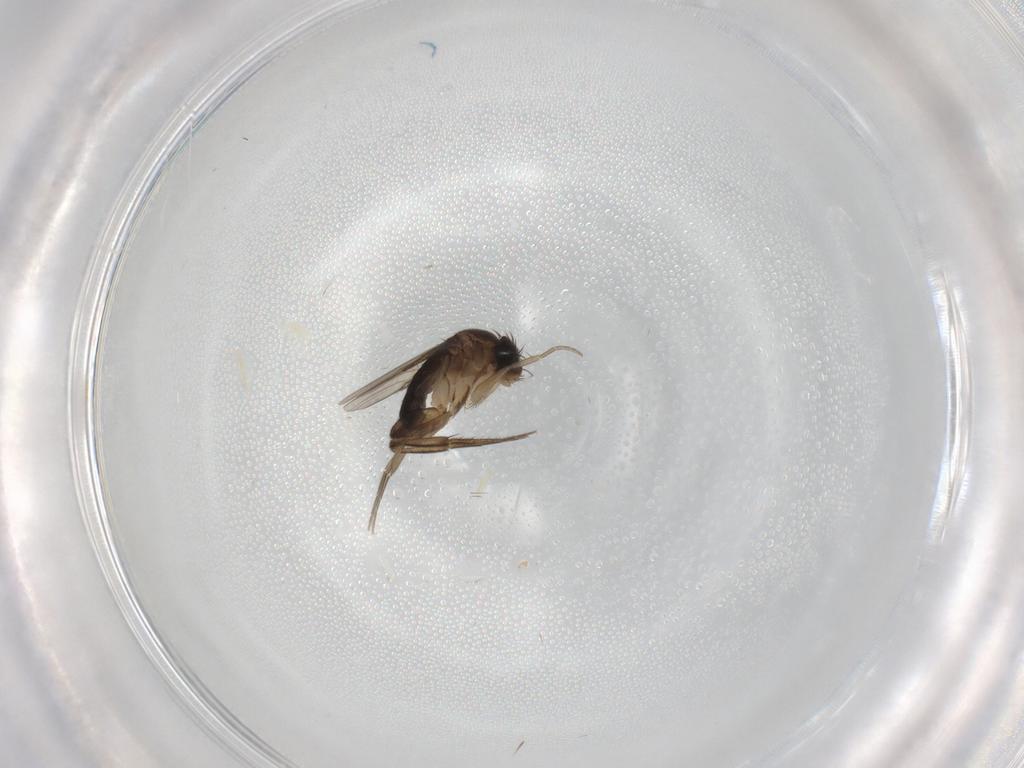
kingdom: Animalia
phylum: Arthropoda
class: Insecta
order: Diptera
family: Phoridae
